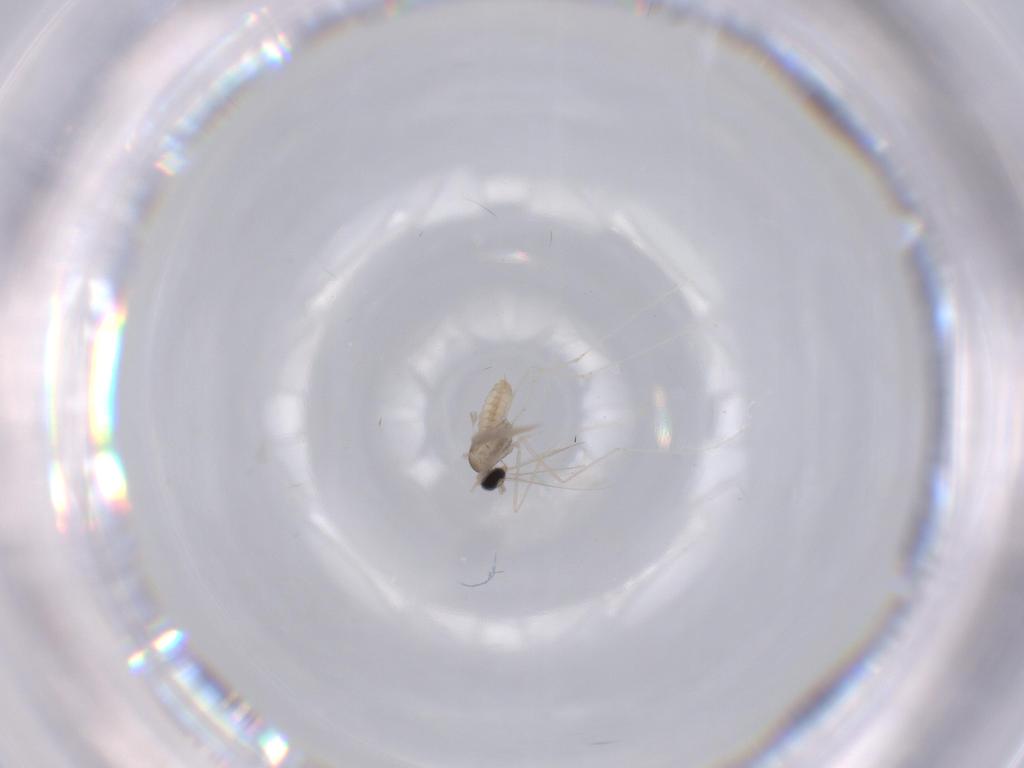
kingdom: Animalia
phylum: Arthropoda
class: Insecta
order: Diptera
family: Cecidomyiidae
